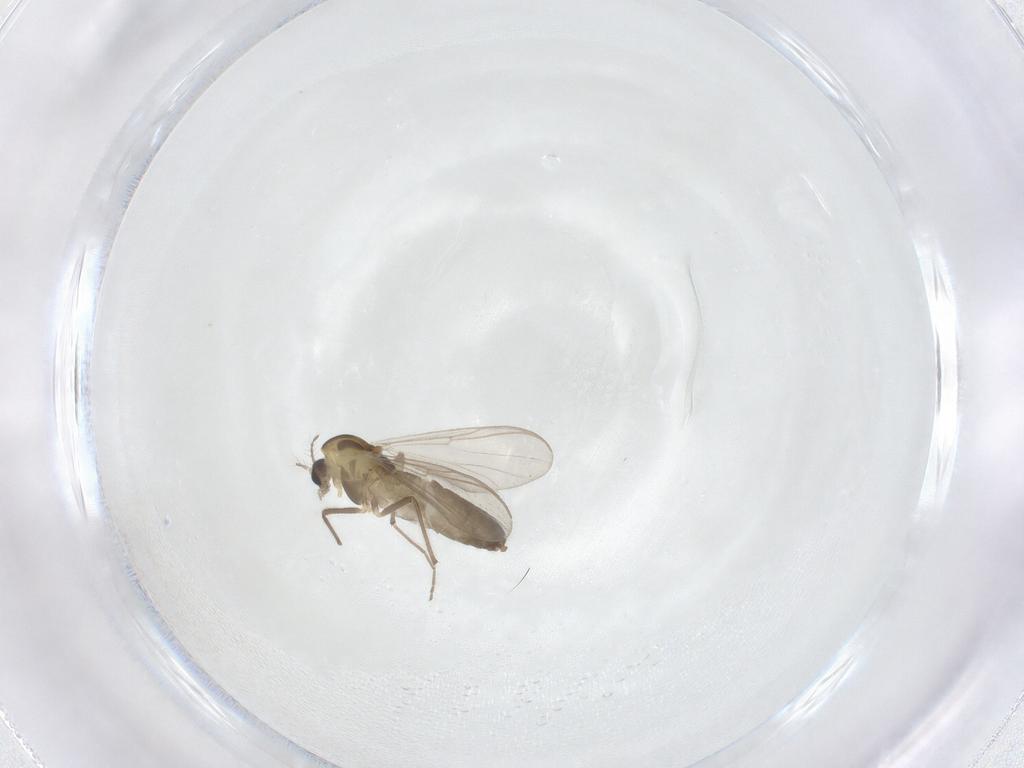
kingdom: Animalia
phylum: Arthropoda
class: Insecta
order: Diptera
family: Chironomidae
